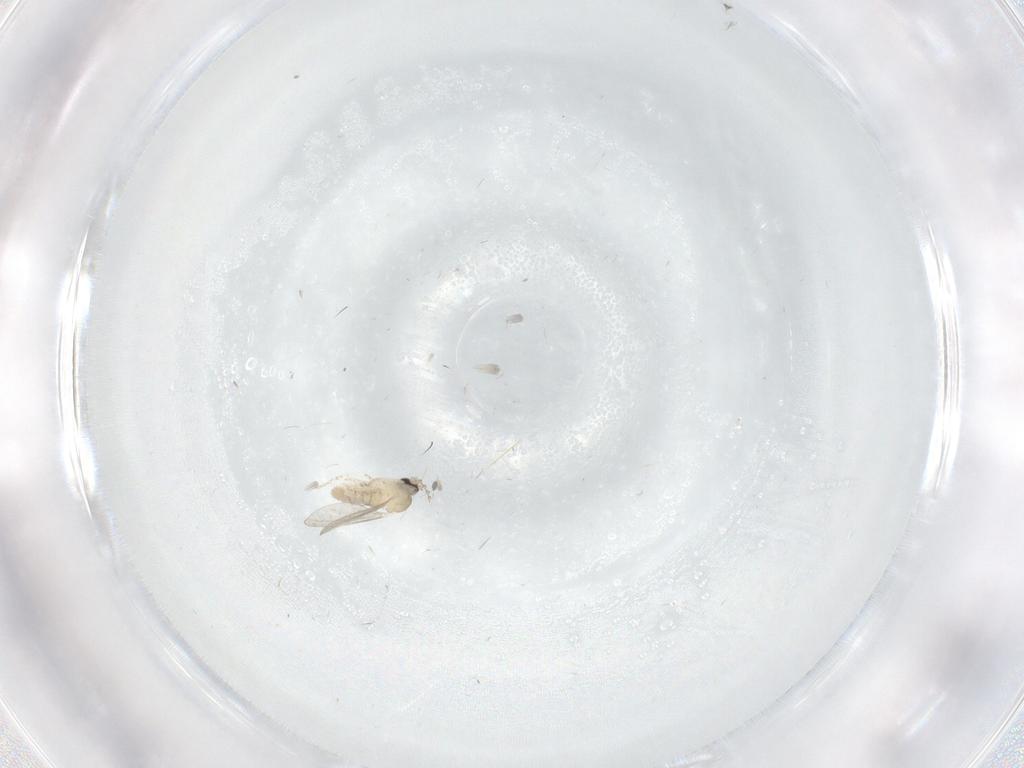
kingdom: Animalia
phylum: Arthropoda
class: Insecta
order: Diptera
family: Cecidomyiidae
